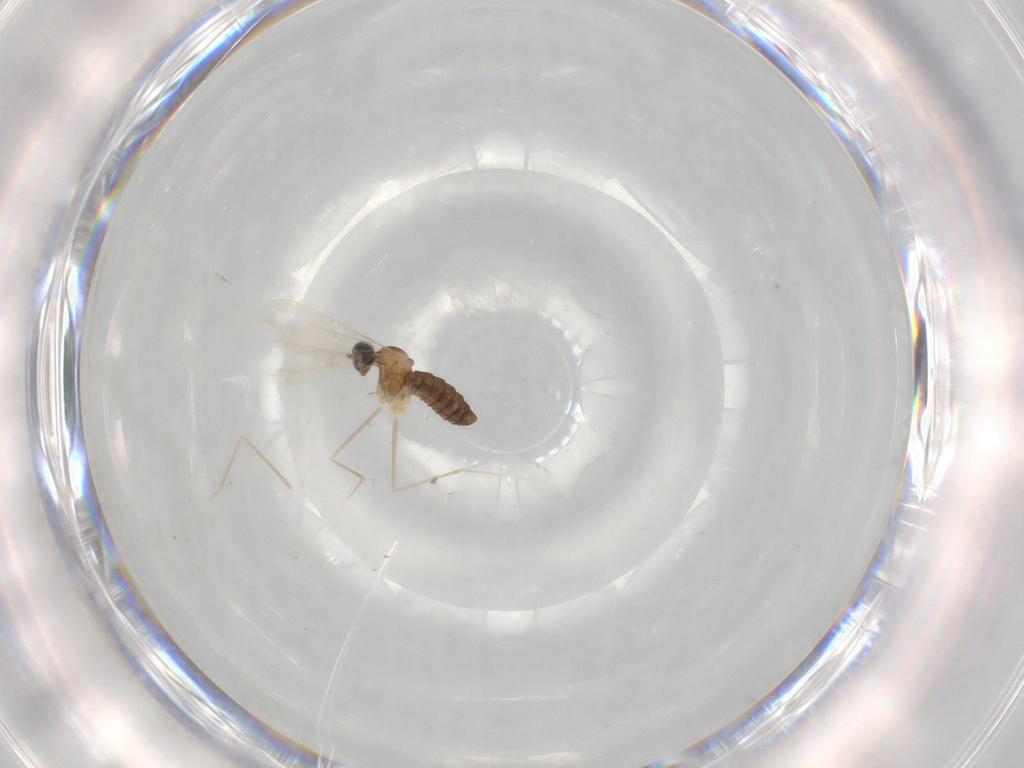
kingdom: Animalia
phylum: Arthropoda
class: Insecta
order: Diptera
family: Cecidomyiidae
